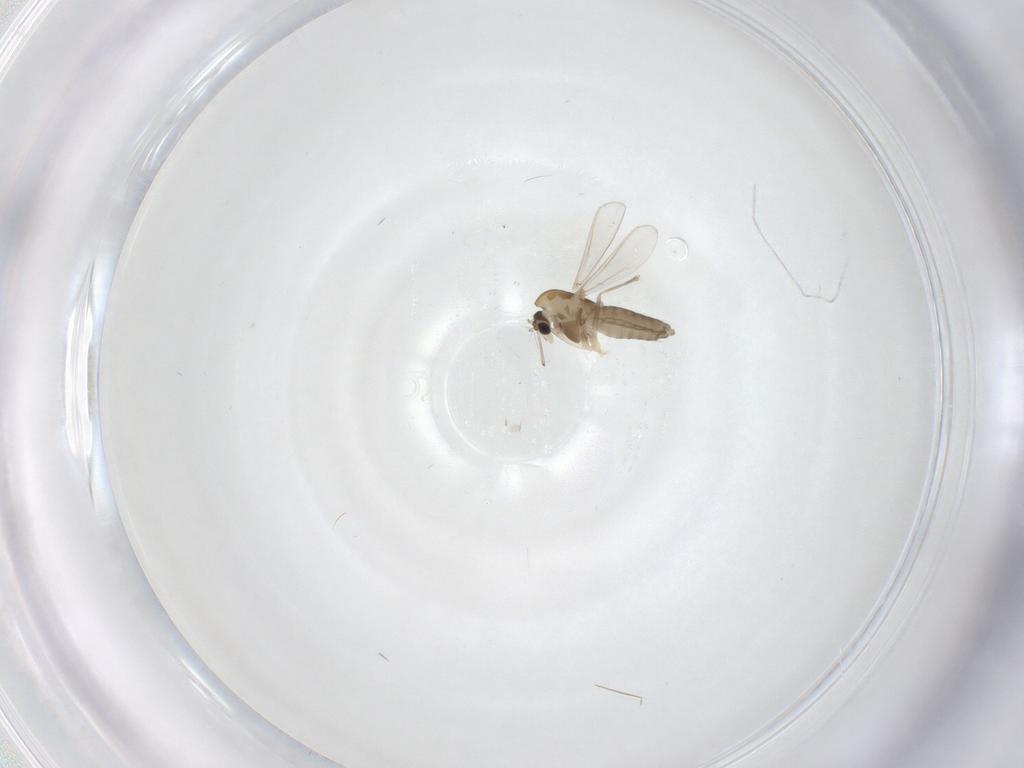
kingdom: Animalia
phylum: Arthropoda
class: Insecta
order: Diptera
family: Chironomidae
